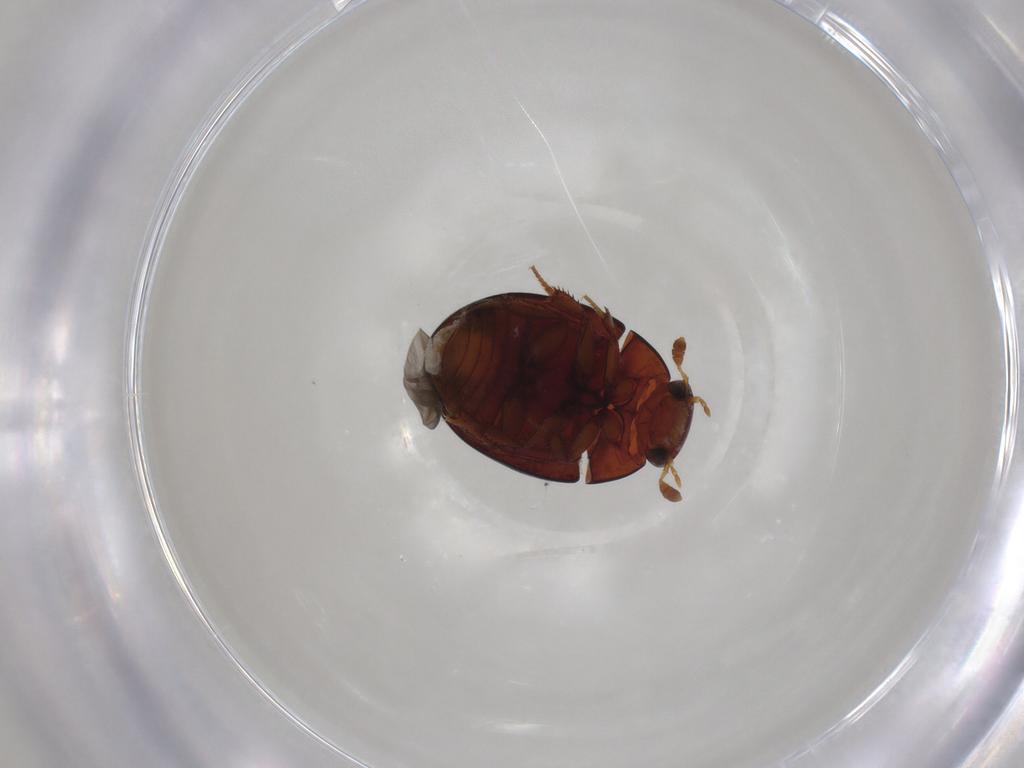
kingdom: Animalia
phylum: Arthropoda
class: Insecta
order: Coleoptera
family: Hydrophilidae
